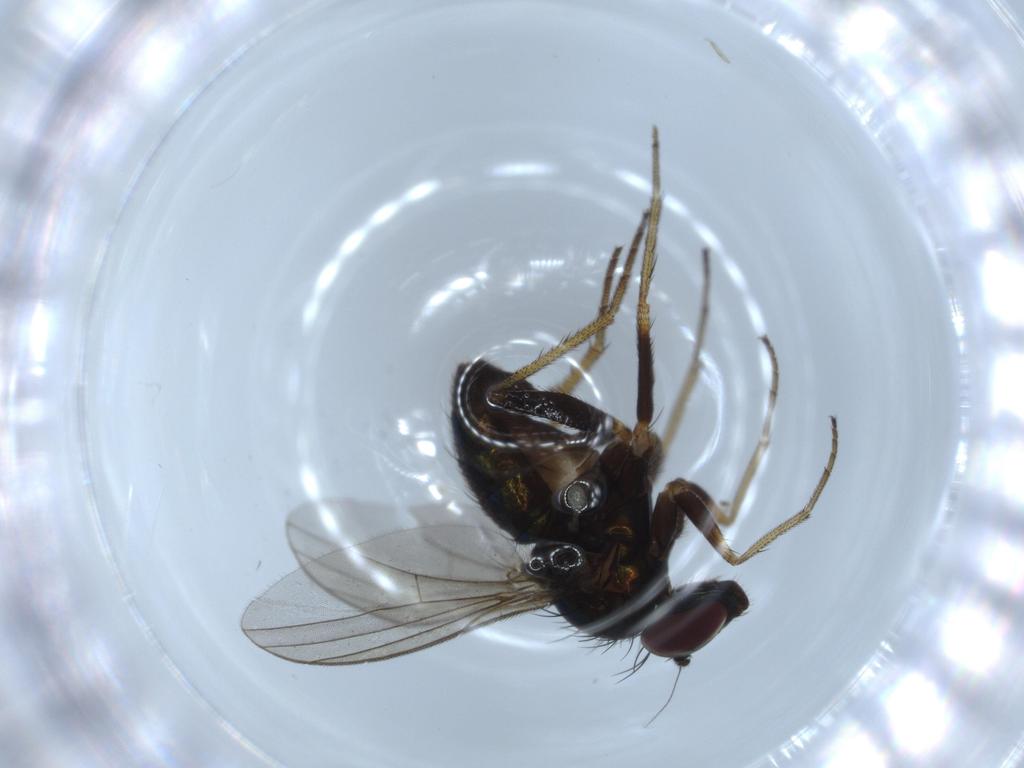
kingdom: Animalia
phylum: Arthropoda
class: Insecta
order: Diptera
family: Dolichopodidae
